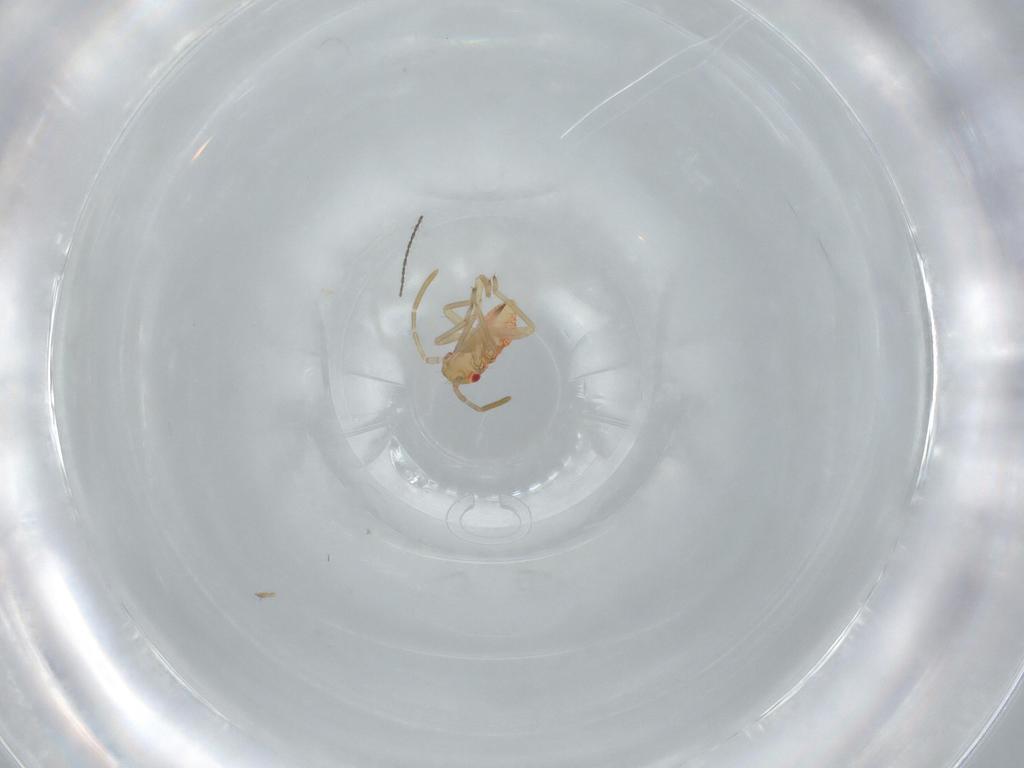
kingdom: Animalia
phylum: Arthropoda
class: Insecta
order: Hemiptera
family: Miridae
